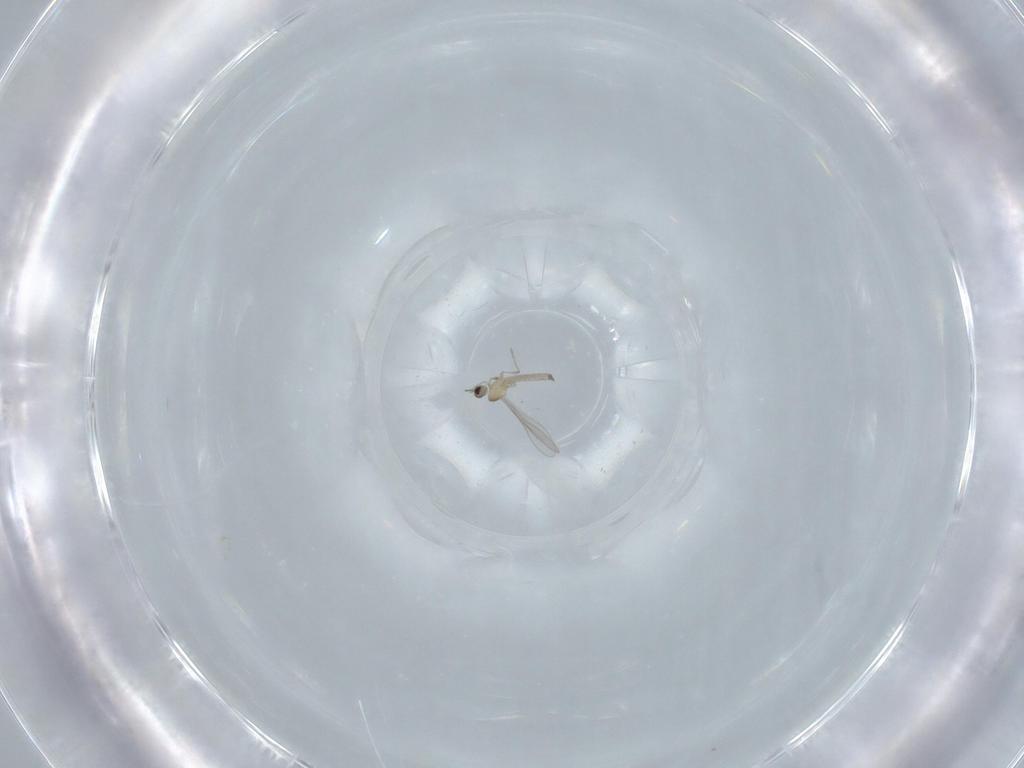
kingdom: Animalia
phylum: Arthropoda
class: Insecta
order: Diptera
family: Cecidomyiidae
